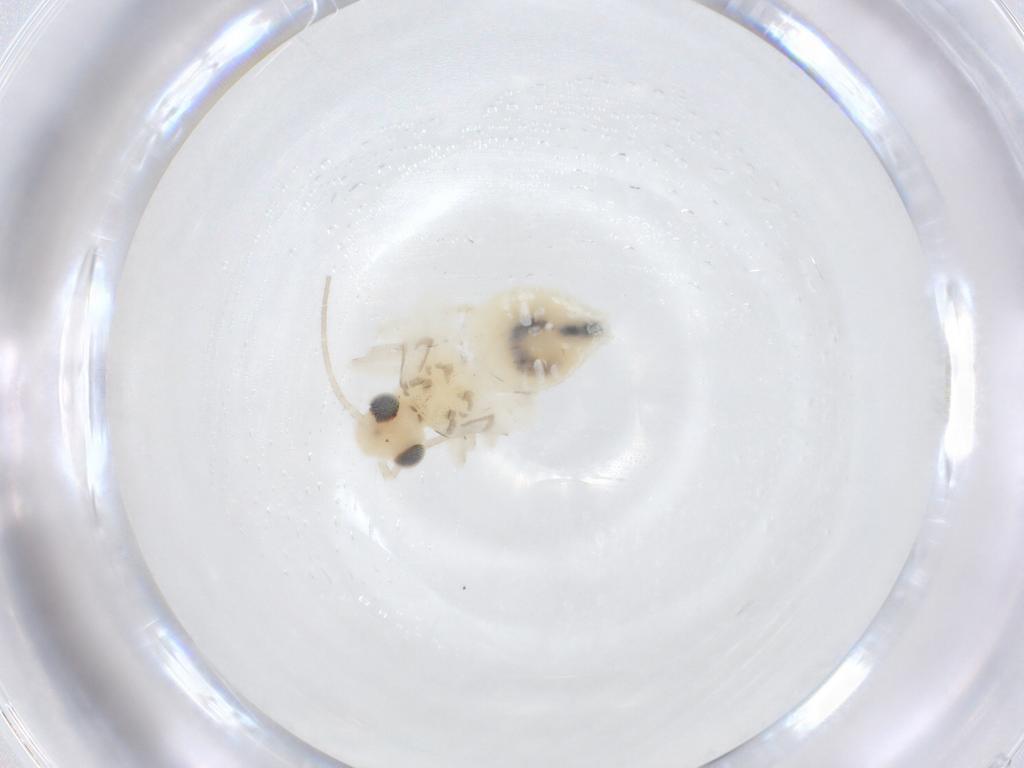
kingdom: Animalia
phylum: Arthropoda
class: Insecta
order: Psocodea
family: Caeciliusidae
